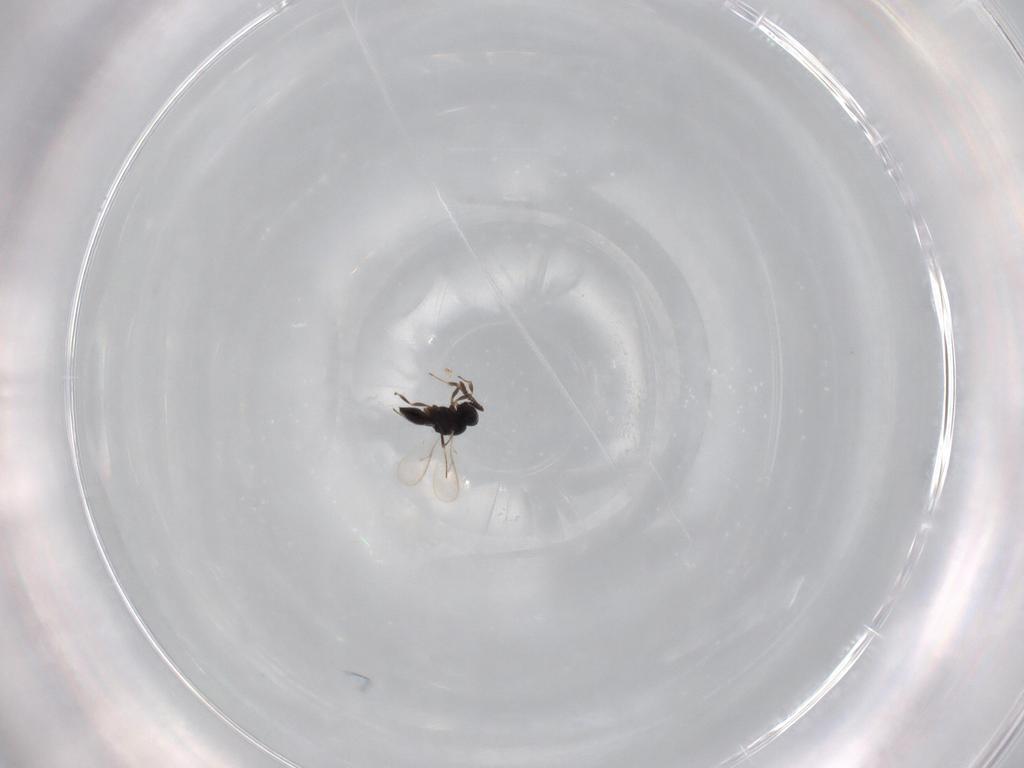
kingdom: Animalia
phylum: Arthropoda
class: Insecta
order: Hymenoptera
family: Scelionidae
